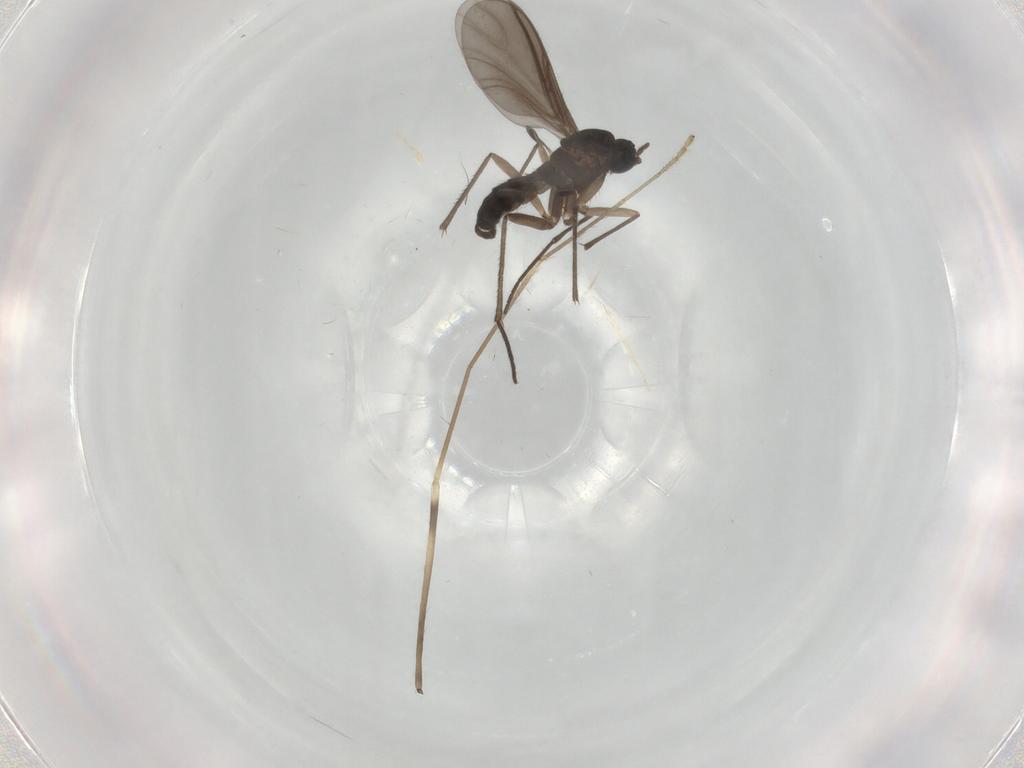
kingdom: Animalia
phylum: Arthropoda
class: Insecta
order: Diptera
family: Sciaridae
